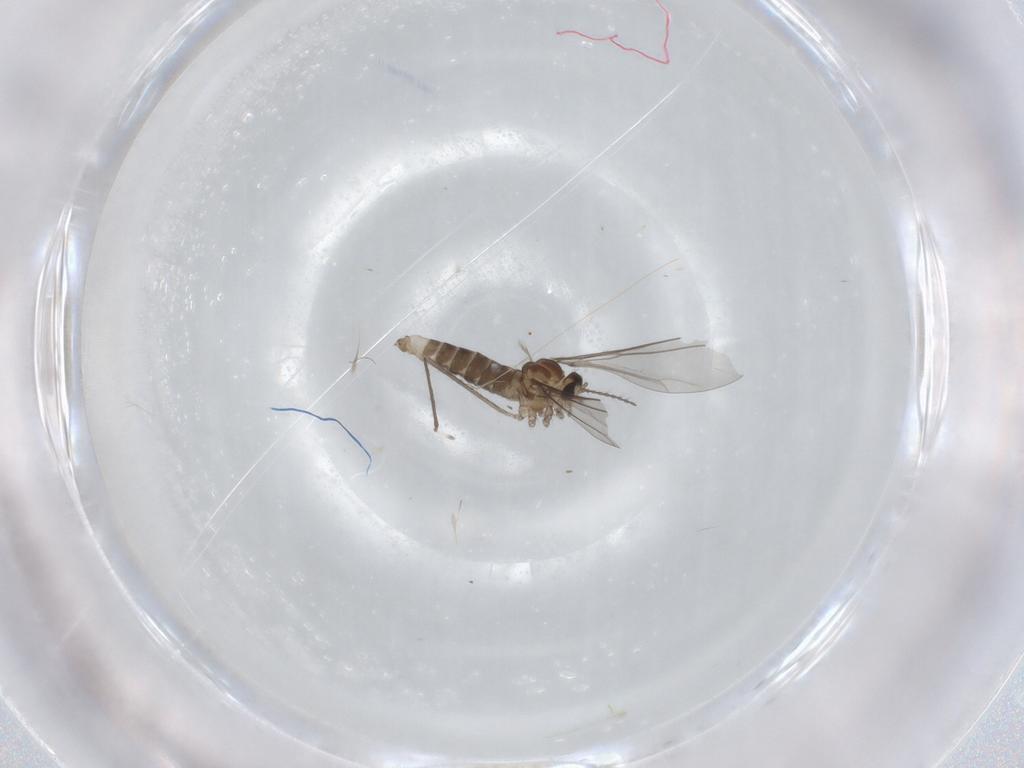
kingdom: Animalia
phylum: Arthropoda
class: Insecta
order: Diptera
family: Cecidomyiidae
